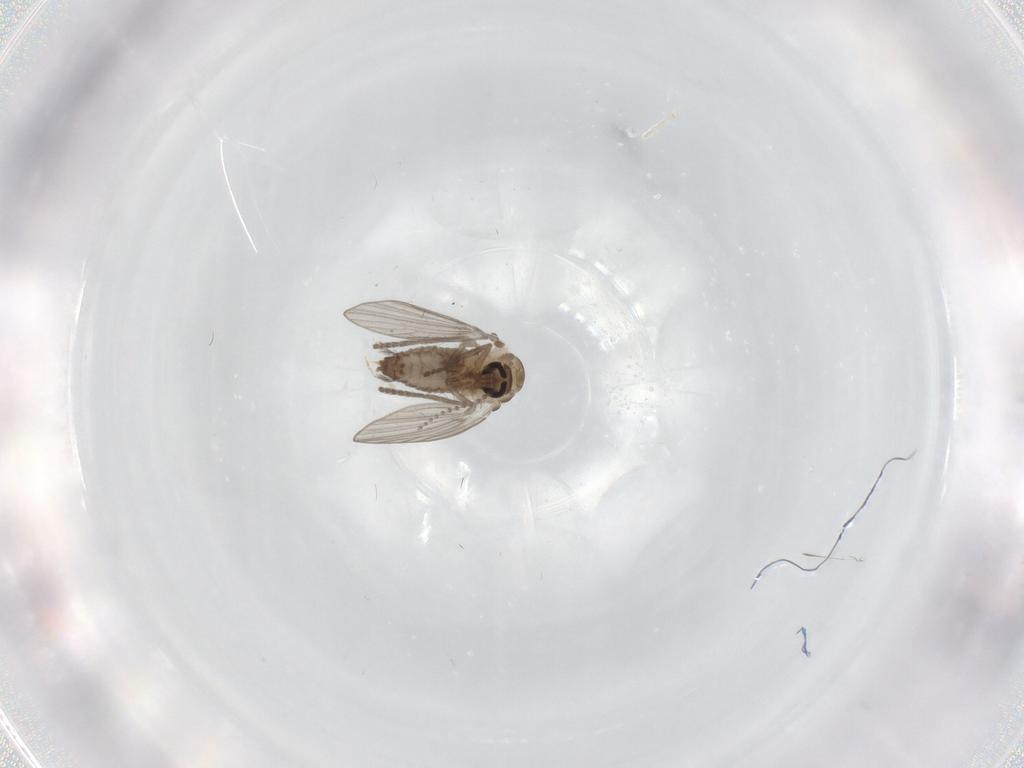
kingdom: Animalia
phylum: Arthropoda
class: Insecta
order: Diptera
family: Psychodidae
